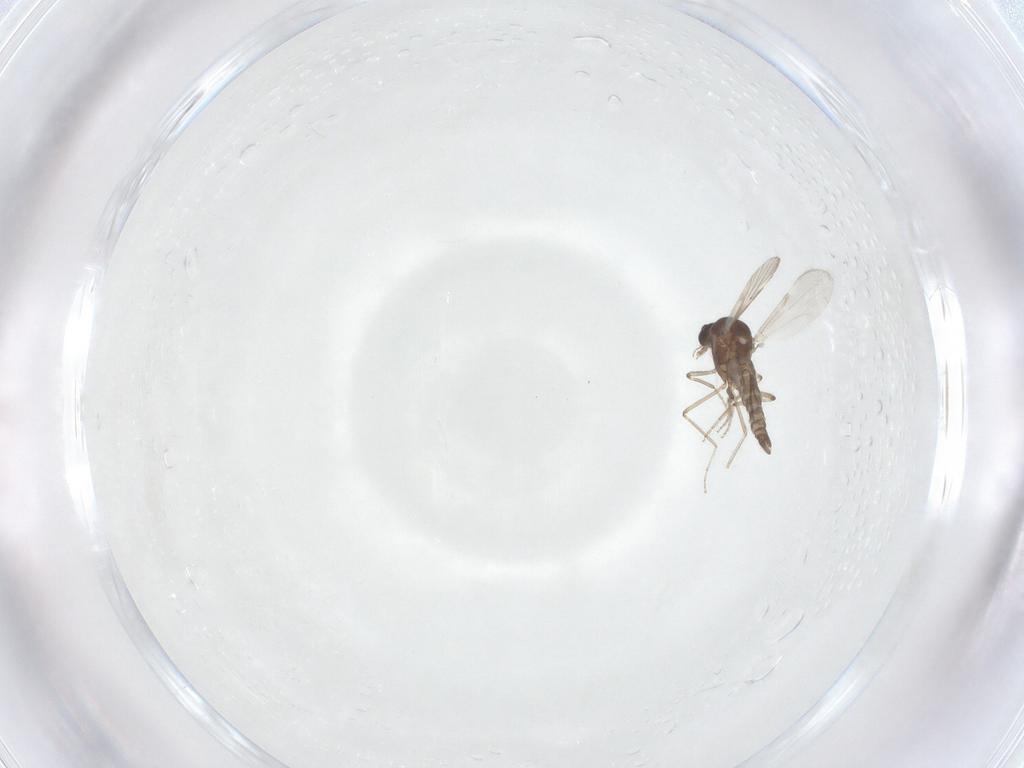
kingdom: Animalia
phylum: Arthropoda
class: Insecta
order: Diptera
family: Ceratopogonidae
